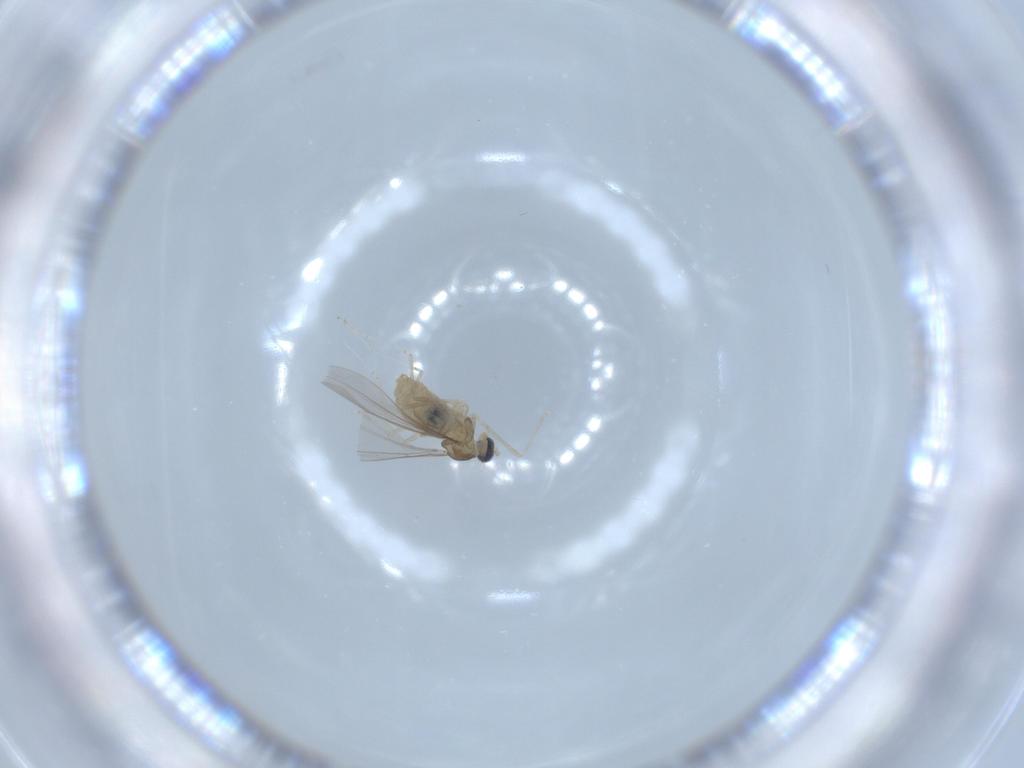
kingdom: Animalia
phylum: Arthropoda
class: Insecta
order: Diptera
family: Cecidomyiidae
